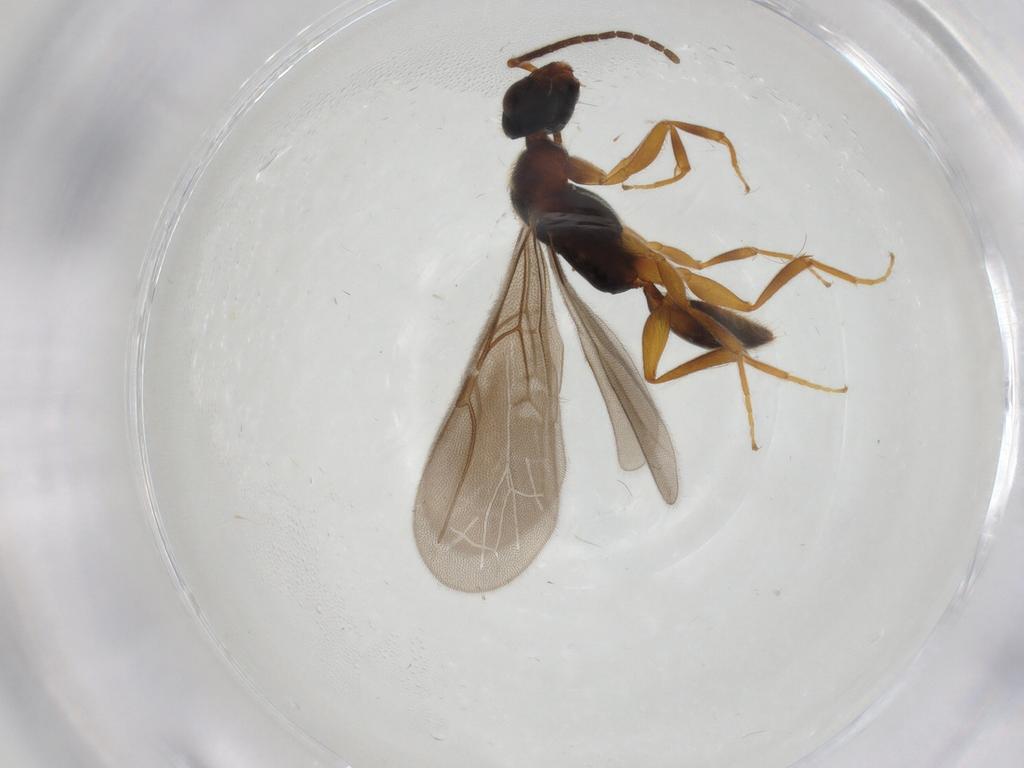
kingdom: Animalia
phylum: Arthropoda
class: Insecta
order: Hymenoptera
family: Bethylidae
